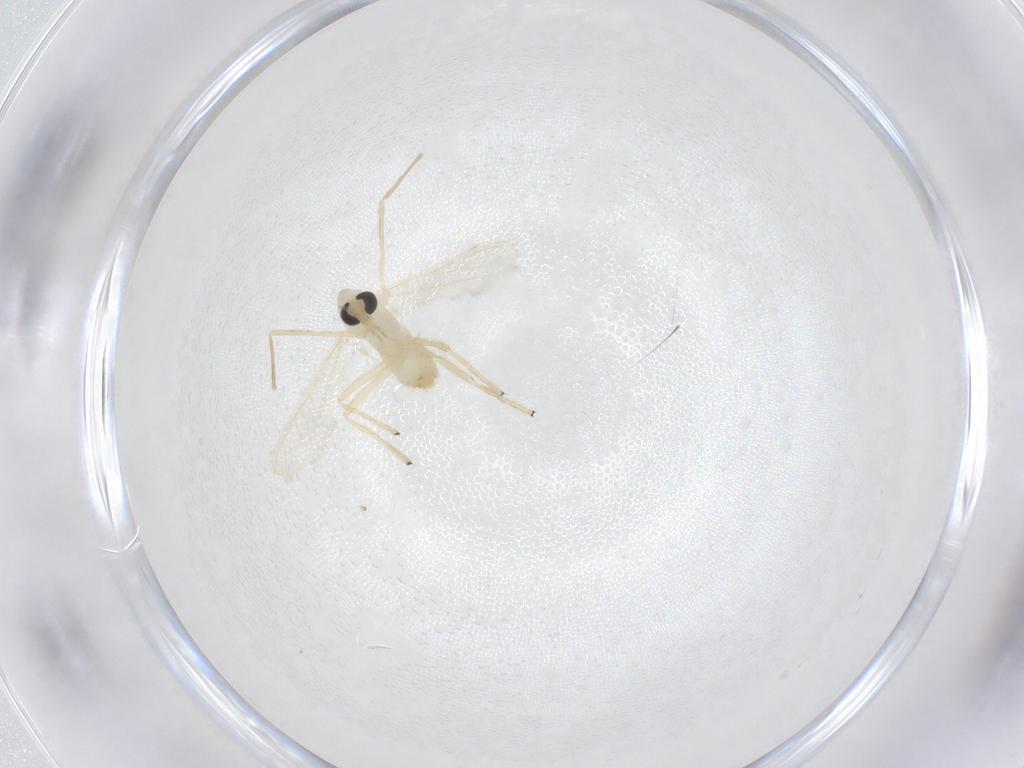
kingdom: Animalia
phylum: Arthropoda
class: Insecta
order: Diptera
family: Chironomidae
